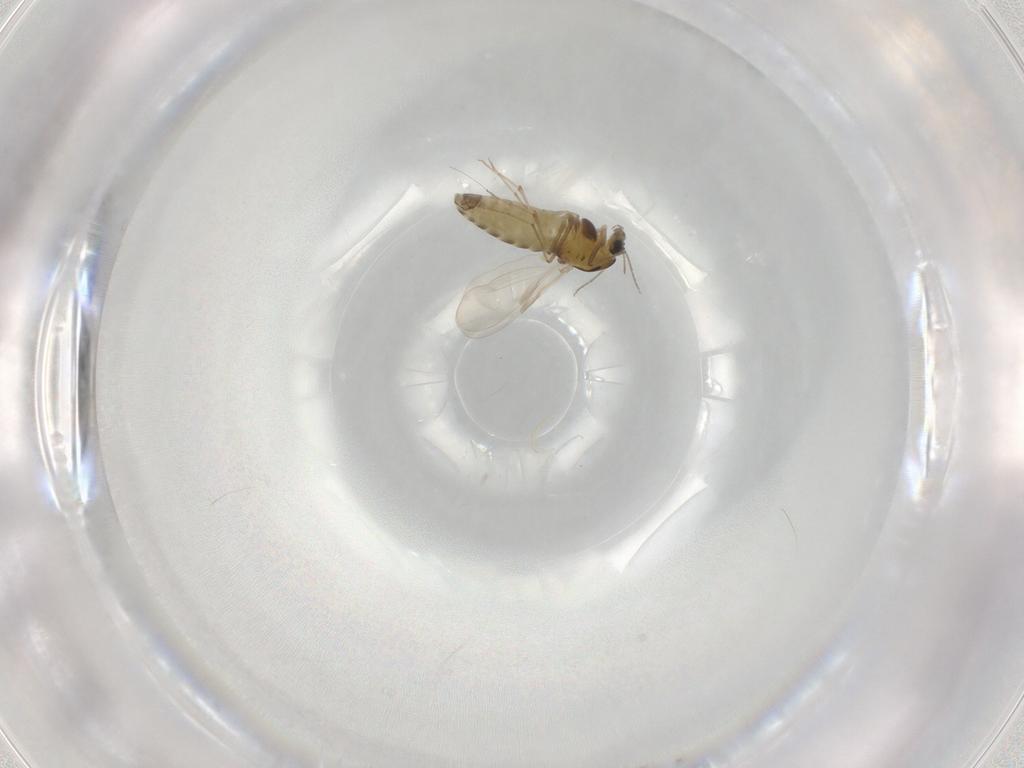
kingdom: Animalia
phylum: Arthropoda
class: Insecta
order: Diptera
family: Chironomidae
